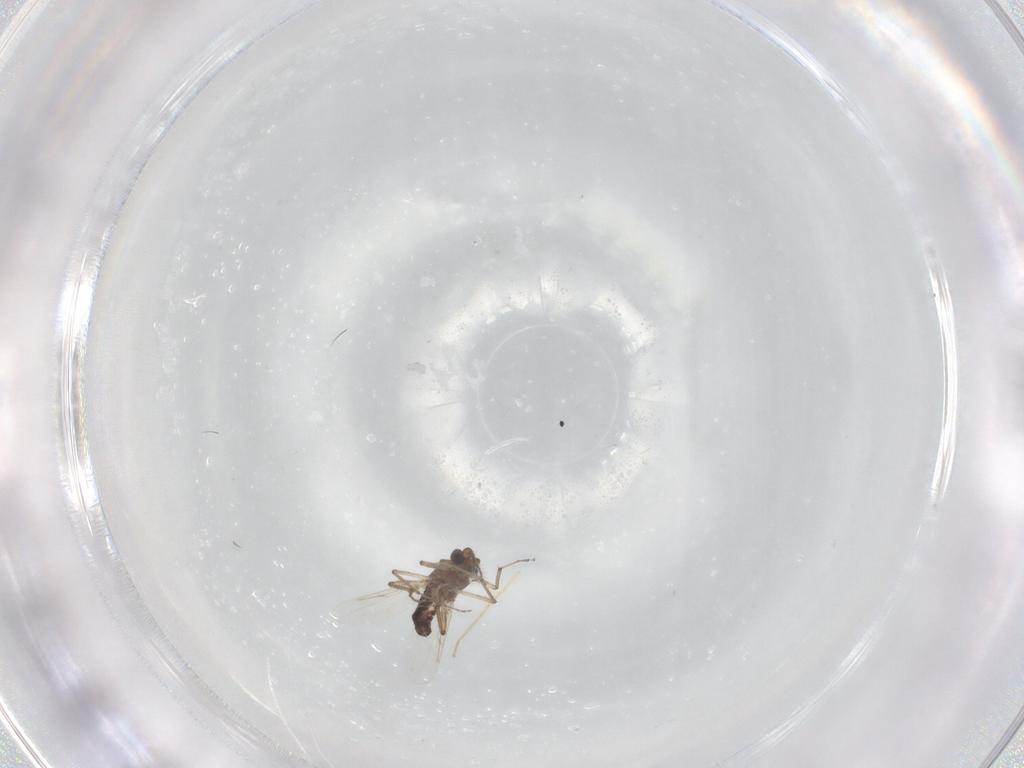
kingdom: Animalia
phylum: Arthropoda
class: Insecta
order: Diptera
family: Ceratopogonidae
